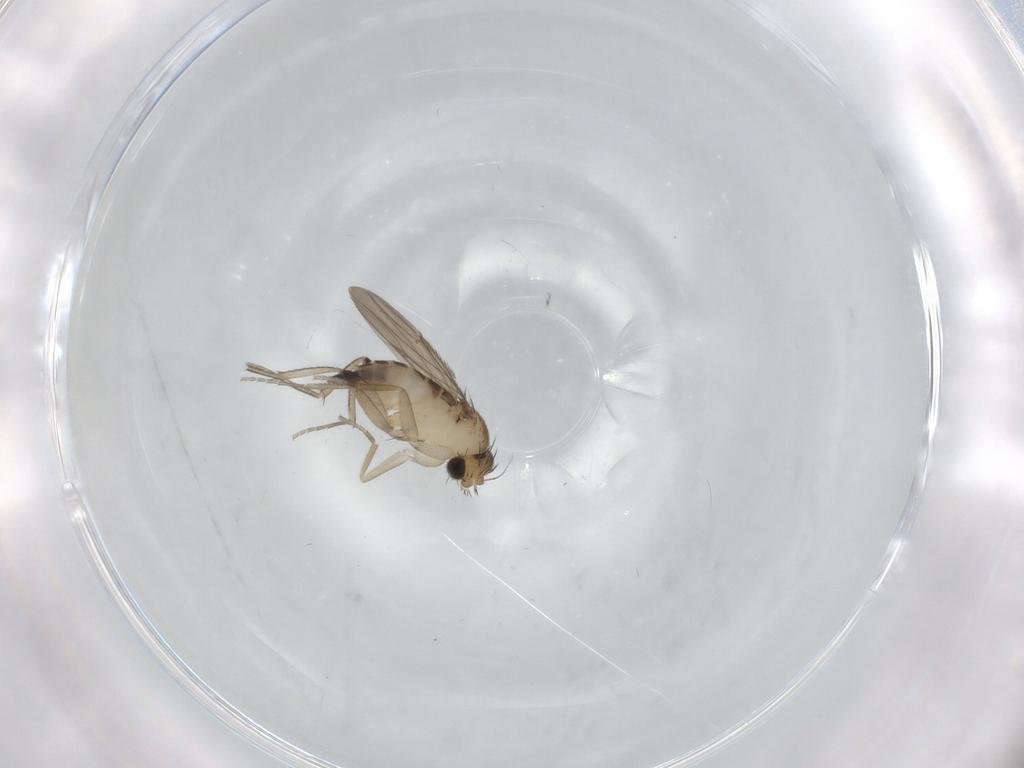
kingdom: Animalia
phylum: Arthropoda
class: Insecta
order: Diptera
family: Phoridae
